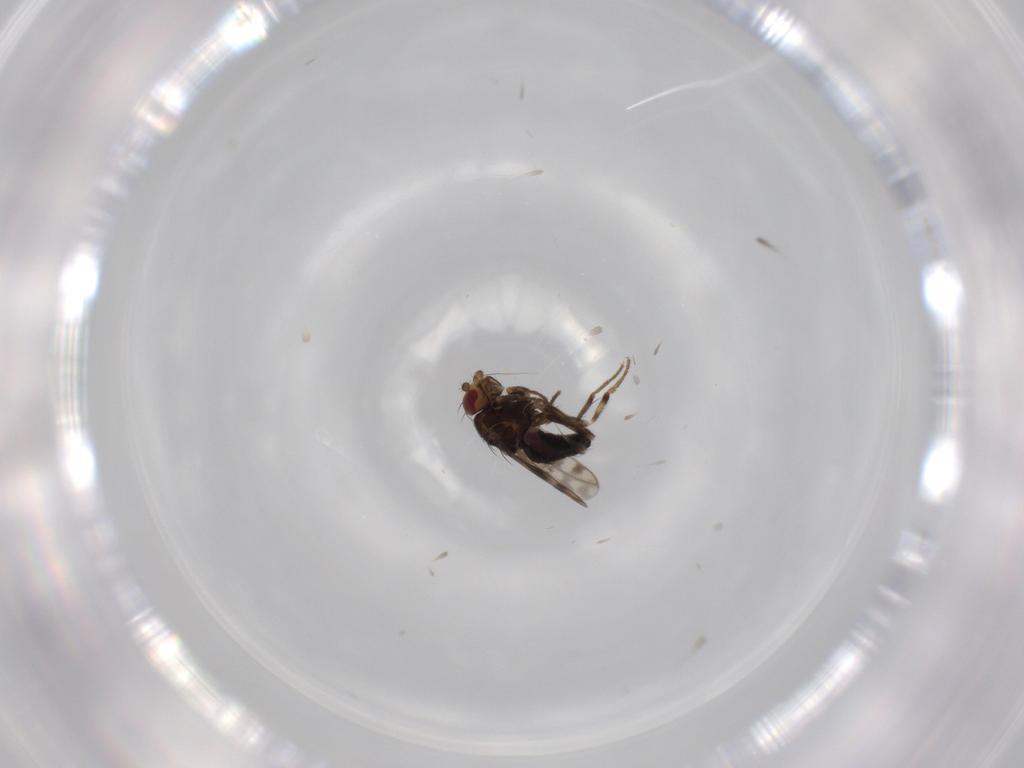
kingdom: Animalia
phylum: Arthropoda
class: Insecta
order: Diptera
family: Sphaeroceridae
